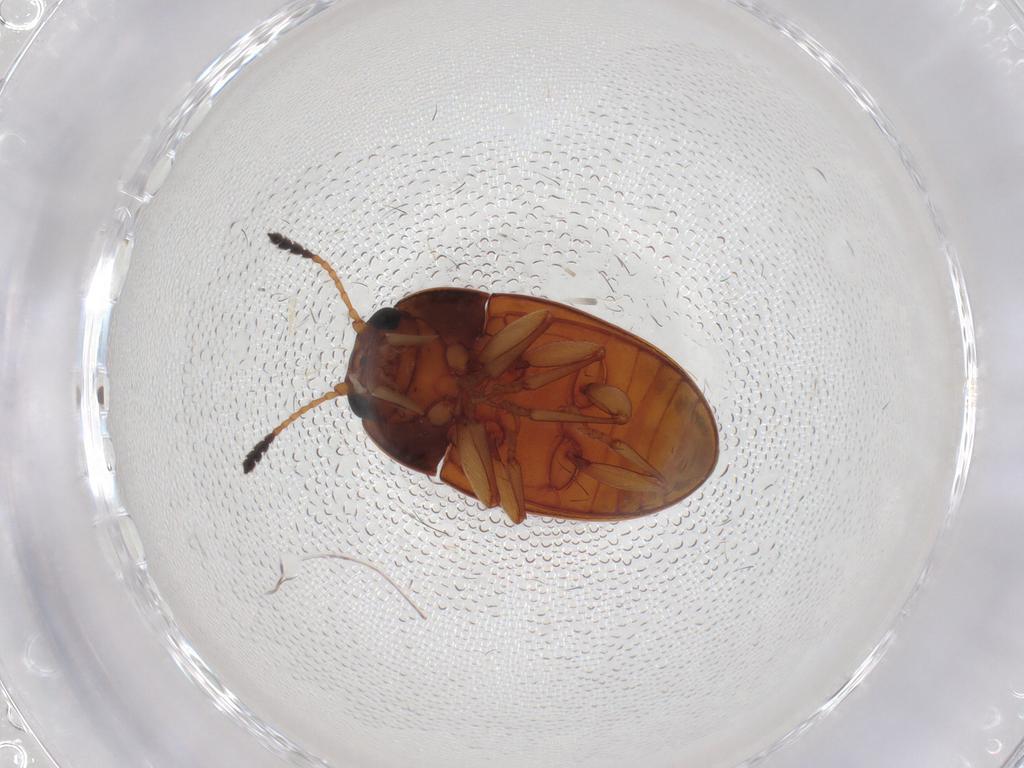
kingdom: Animalia
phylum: Arthropoda
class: Insecta
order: Coleoptera
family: Erotylidae
